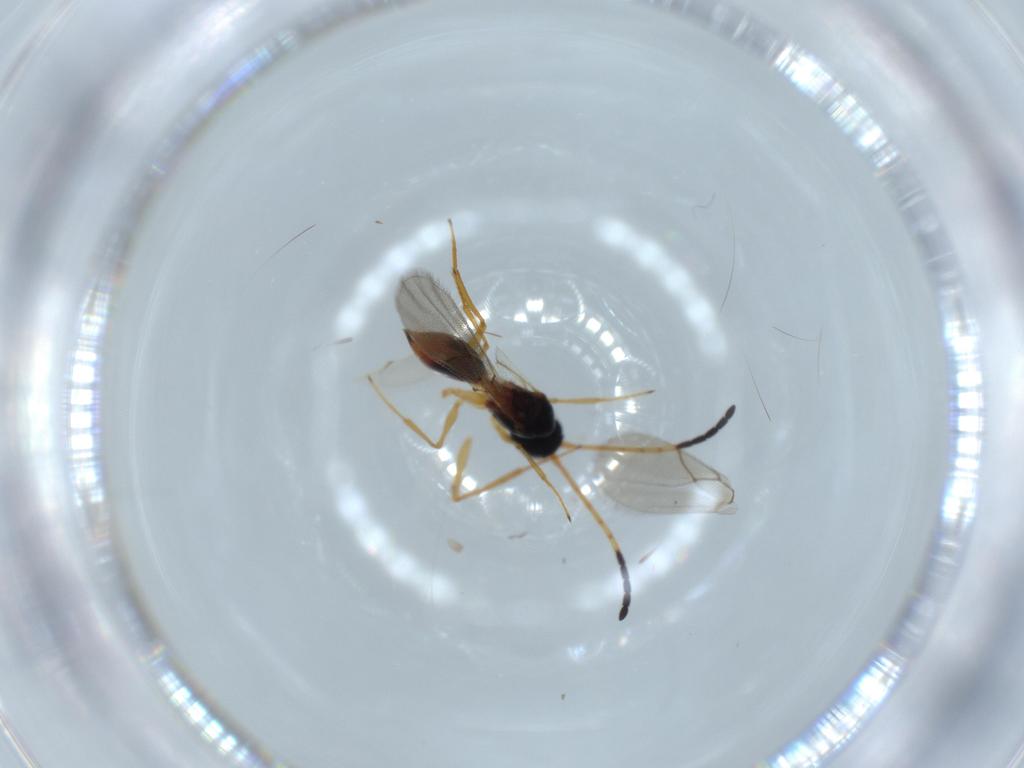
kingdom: Animalia
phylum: Arthropoda
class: Insecta
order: Hymenoptera
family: Figitidae
